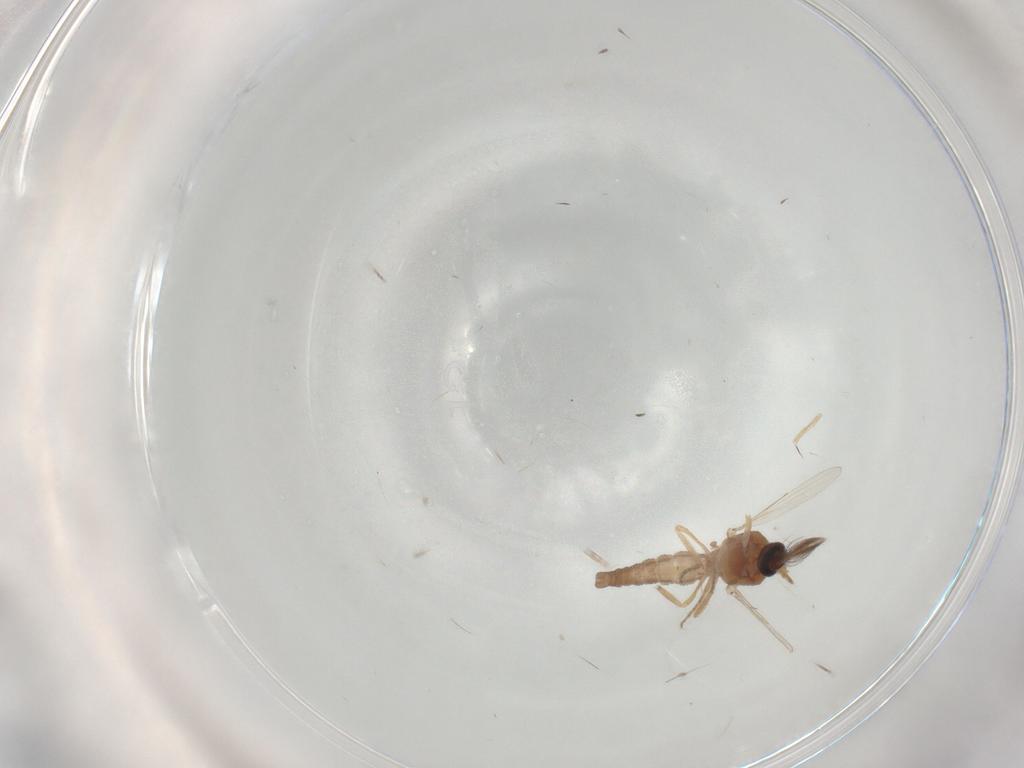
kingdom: Animalia
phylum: Arthropoda
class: Insecta
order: Diptera
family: Ceratopogonidae
